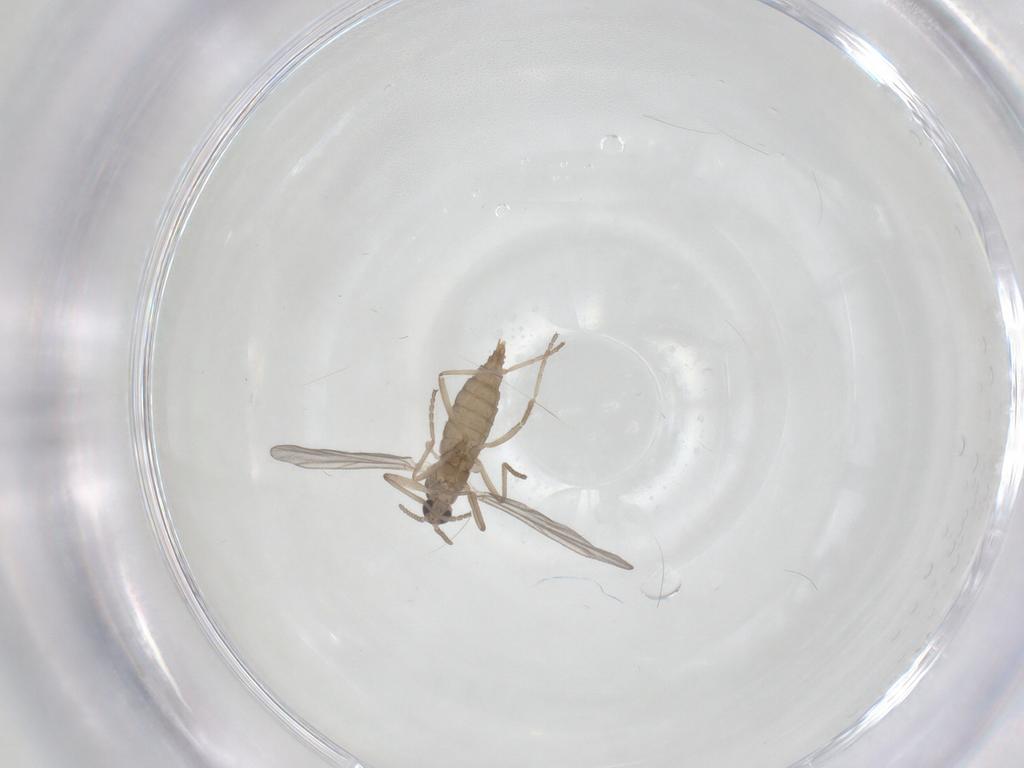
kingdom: Animalia
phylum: Arthropoda
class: Insecta
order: Diptera
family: Cecidomyiidae
